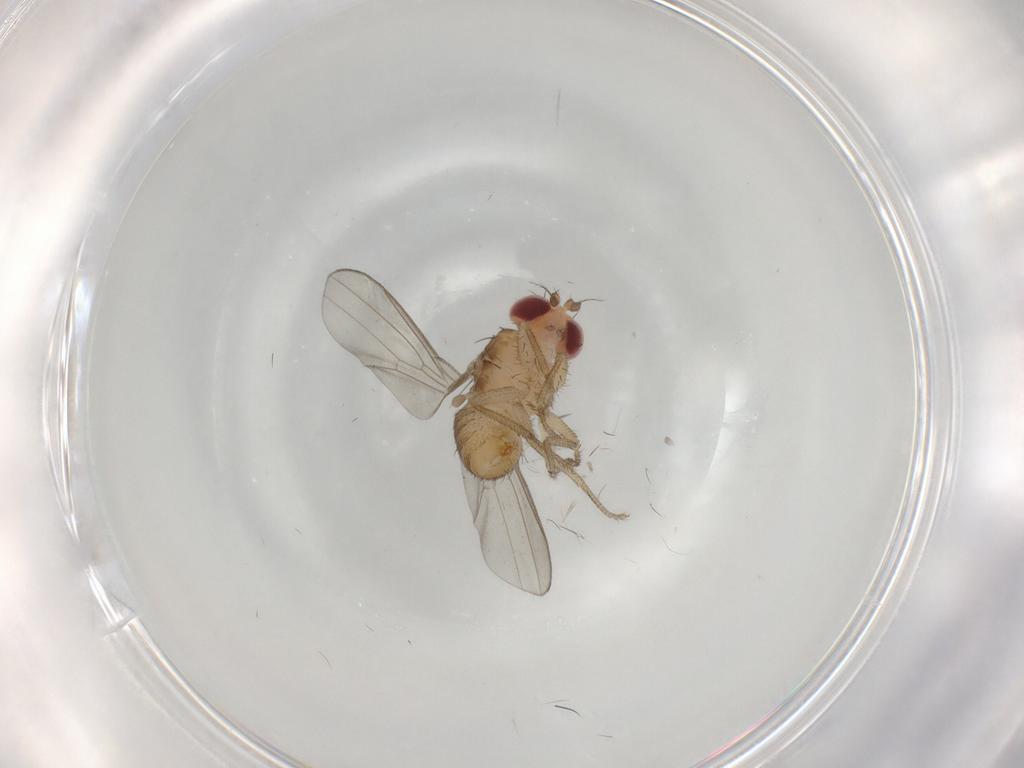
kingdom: Animalia
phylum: Arthropoda
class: Insecta
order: Diptera
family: Drosophilidae
